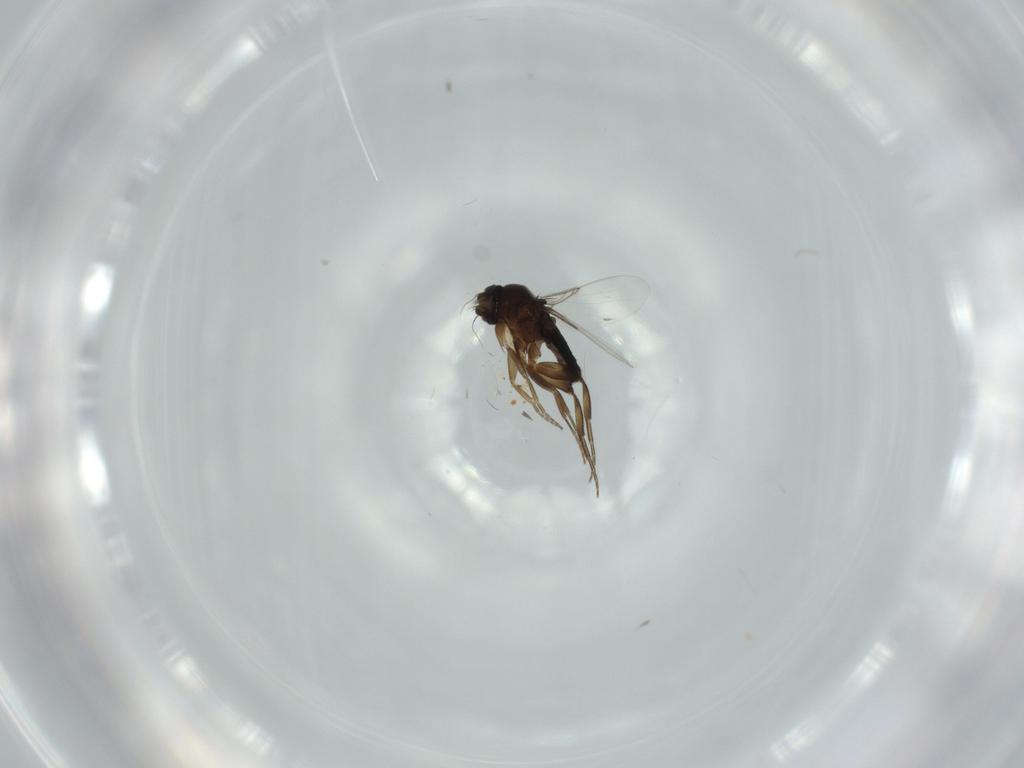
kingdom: Animalia
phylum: Arthropoda
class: Insecta
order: Diptera
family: Phoridae
